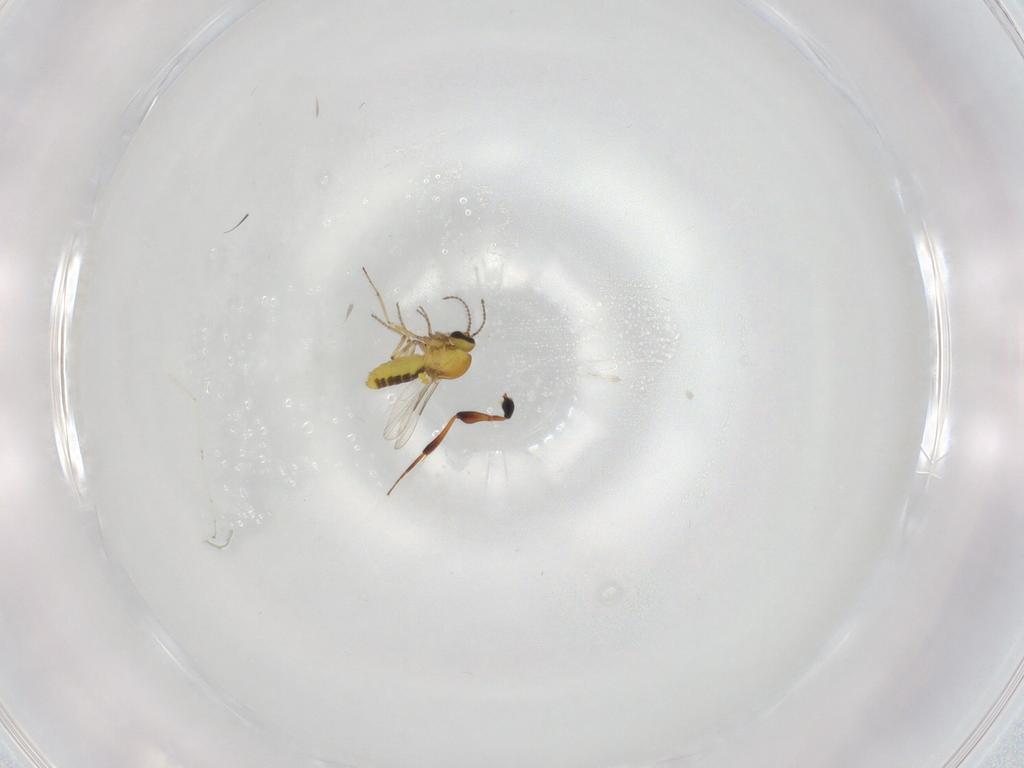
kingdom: Animalia
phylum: Arthropoda
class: Insecta
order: Diptera
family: Ceratopogonidae
